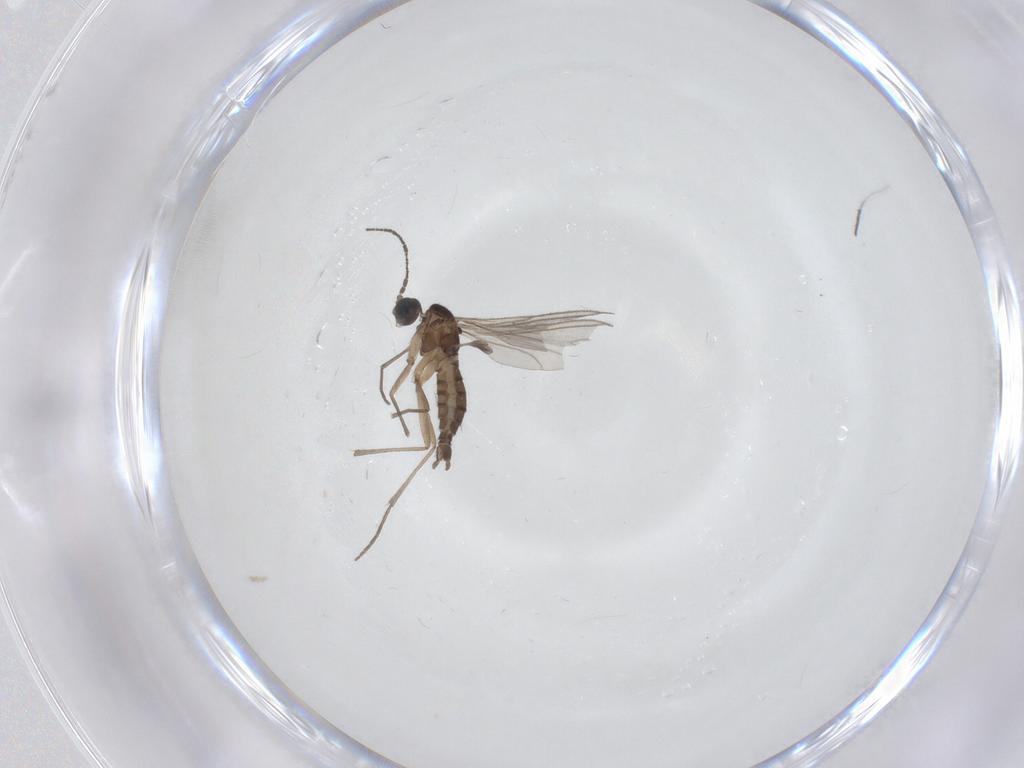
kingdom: Animalia
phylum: Arthropoda
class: Insecta
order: Diptera
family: Sciaridae
